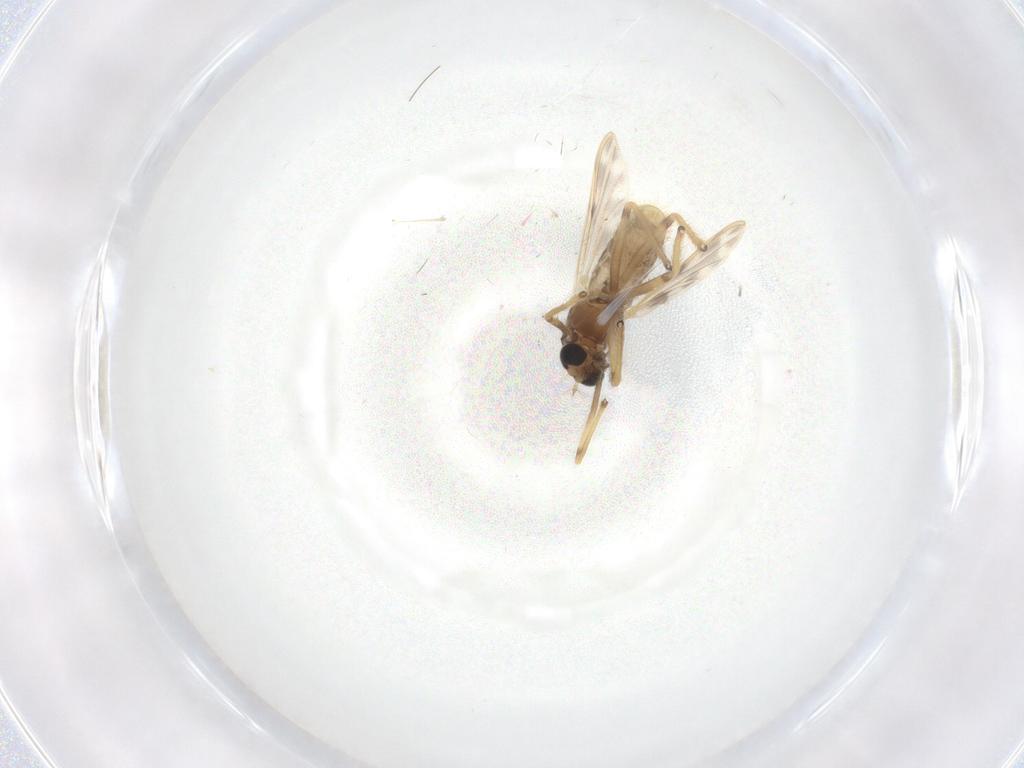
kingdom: Animalia
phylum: Arthropoda
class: Insecta
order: Diptera
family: Chironomidae
